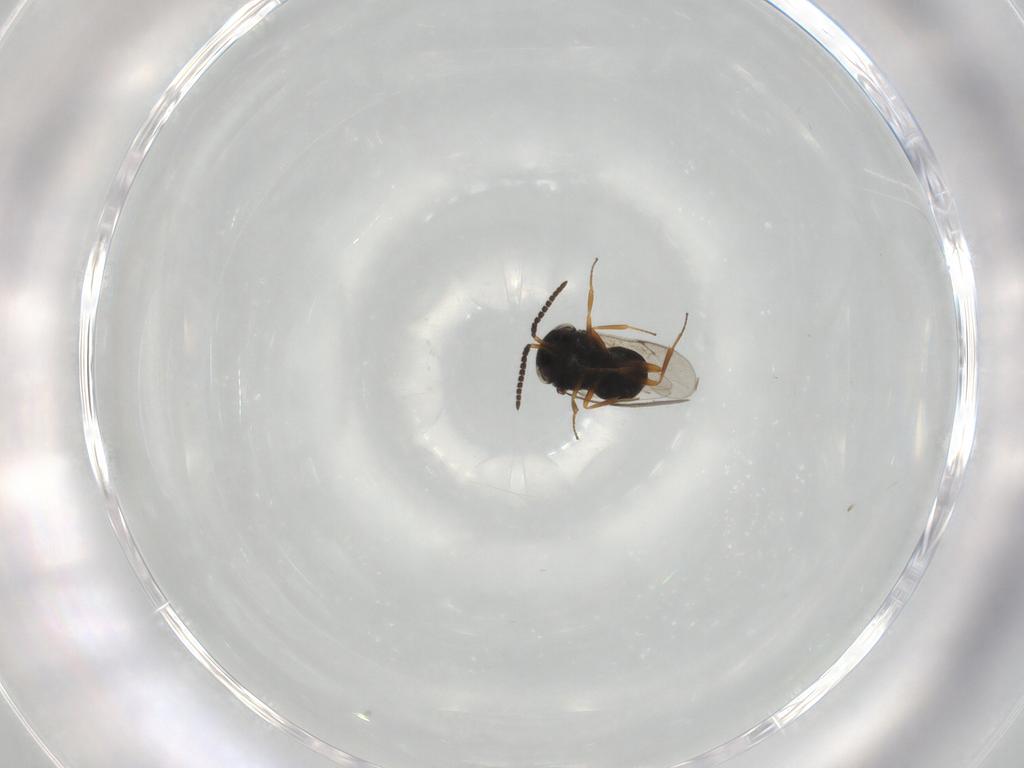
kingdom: Animalia
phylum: Arthropoda
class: Insecta
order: Hymenoptera
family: Scelionidae
